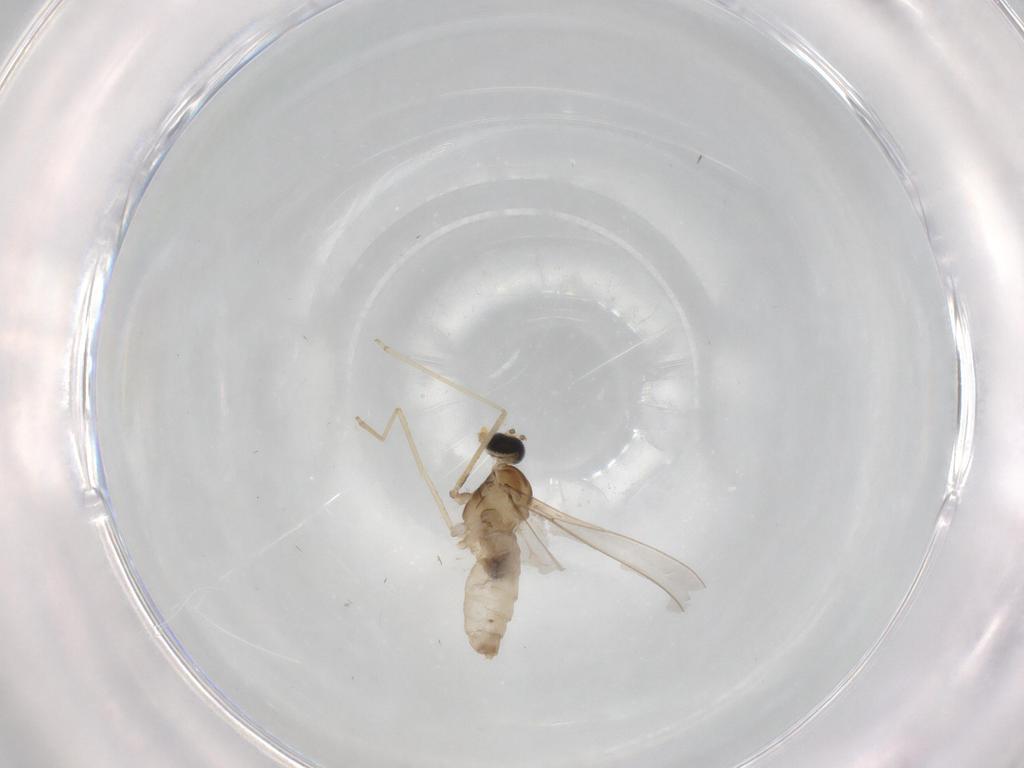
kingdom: Animalia
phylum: Arthropoda
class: Insecta
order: Diptera
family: Cecidomyiidae
